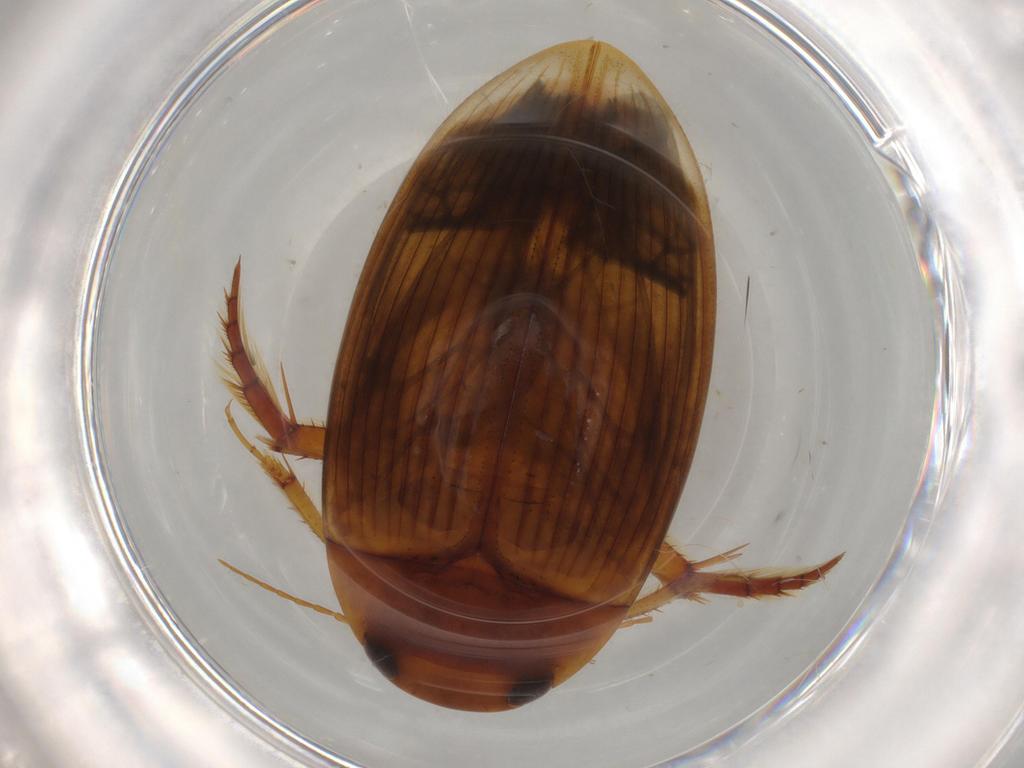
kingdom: Animalia
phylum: Arthropoda
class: Insecta
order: Coleoptera
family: Dytiscidae
